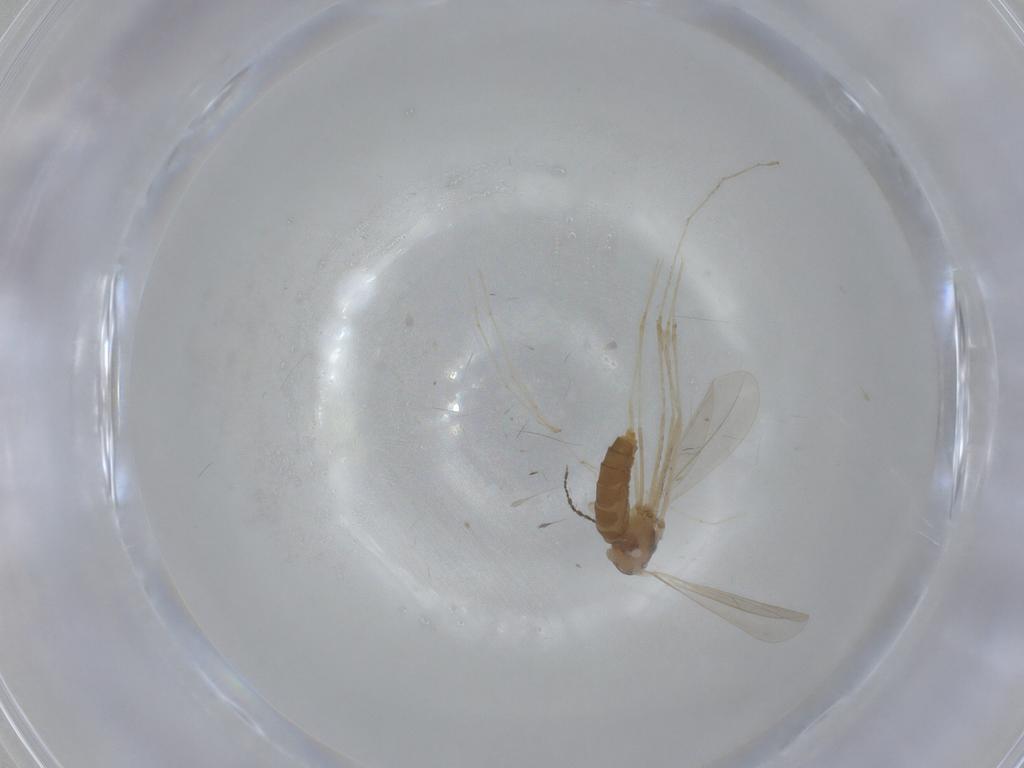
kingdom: Animalia
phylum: Arthropoda
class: Insecta
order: Diptera
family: Cecidomyiidae
